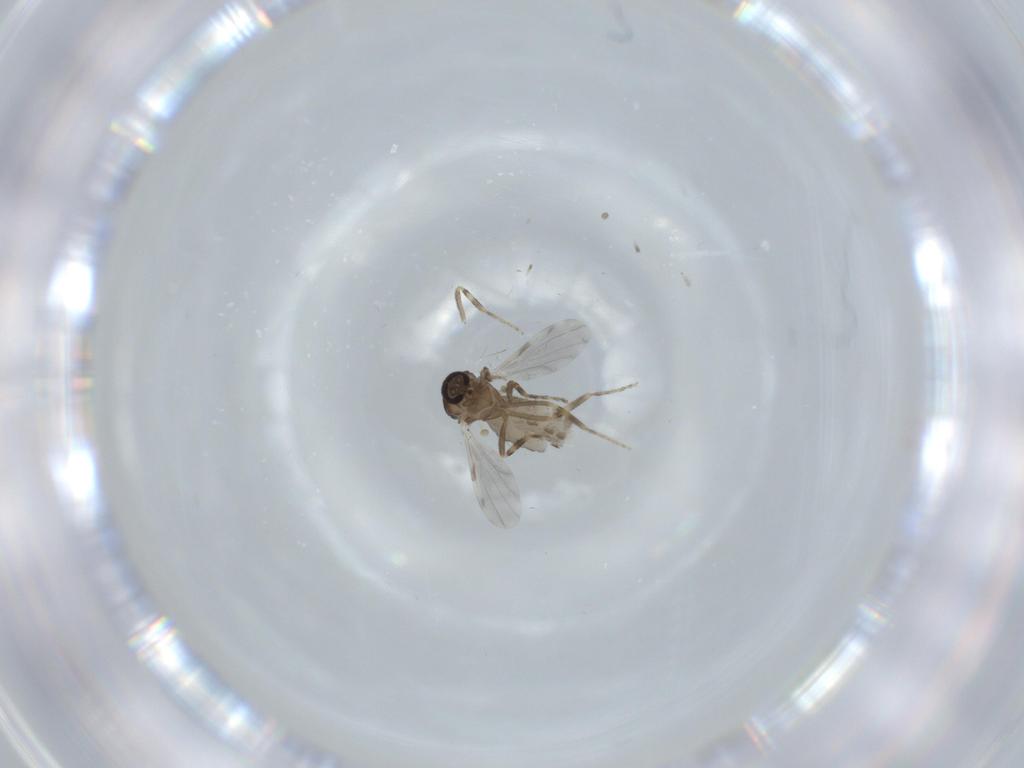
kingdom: Animalia
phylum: Arthropoda
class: Insecta
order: Diptera
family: Ceratopogonidae
